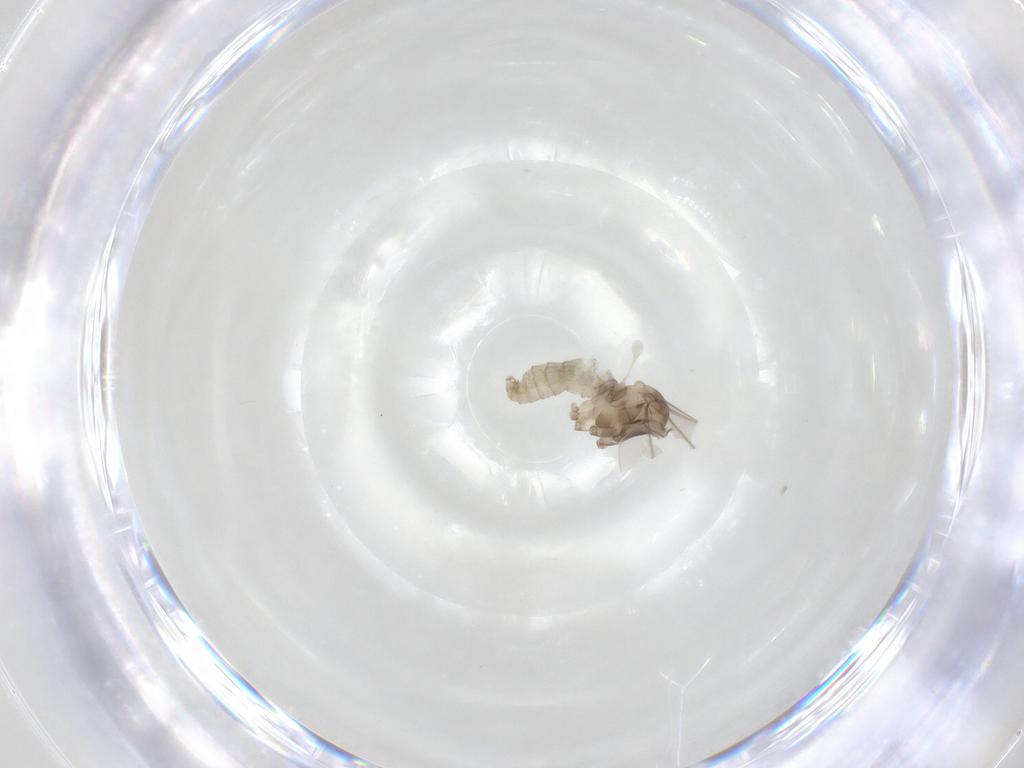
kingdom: Animalia
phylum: Arthropoda
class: Insecta
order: Diptera
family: Cecidomyiidae
